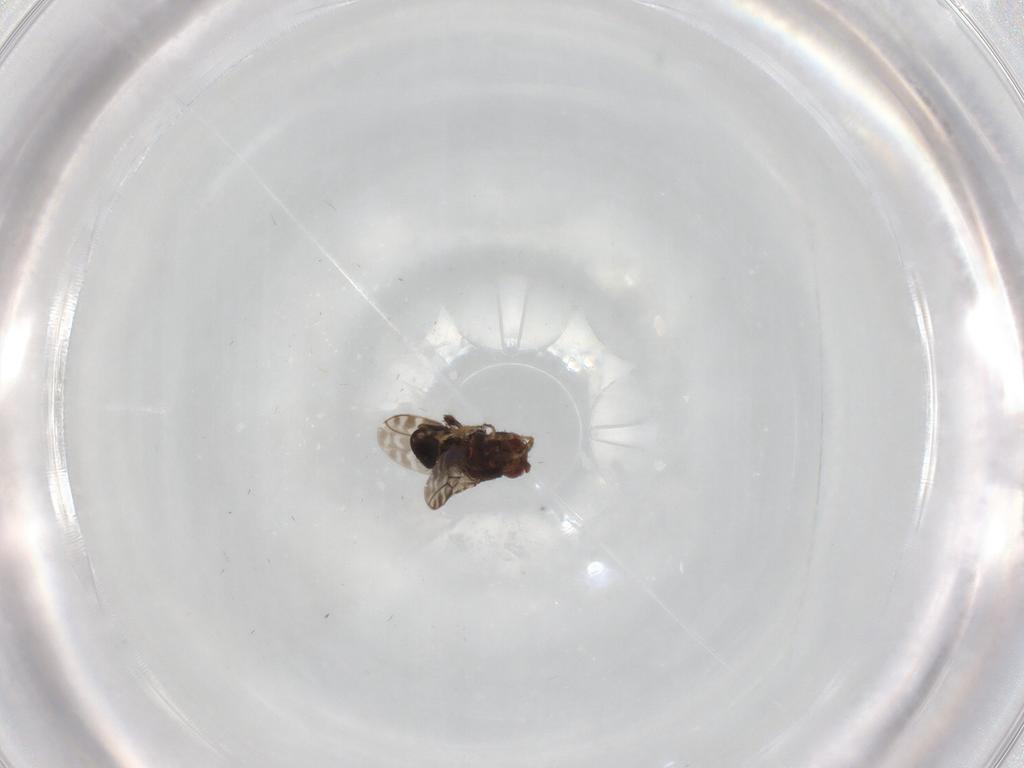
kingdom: Animalia
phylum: Arthropoda
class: Insecta
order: Diptera
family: Sphaeroceridae
